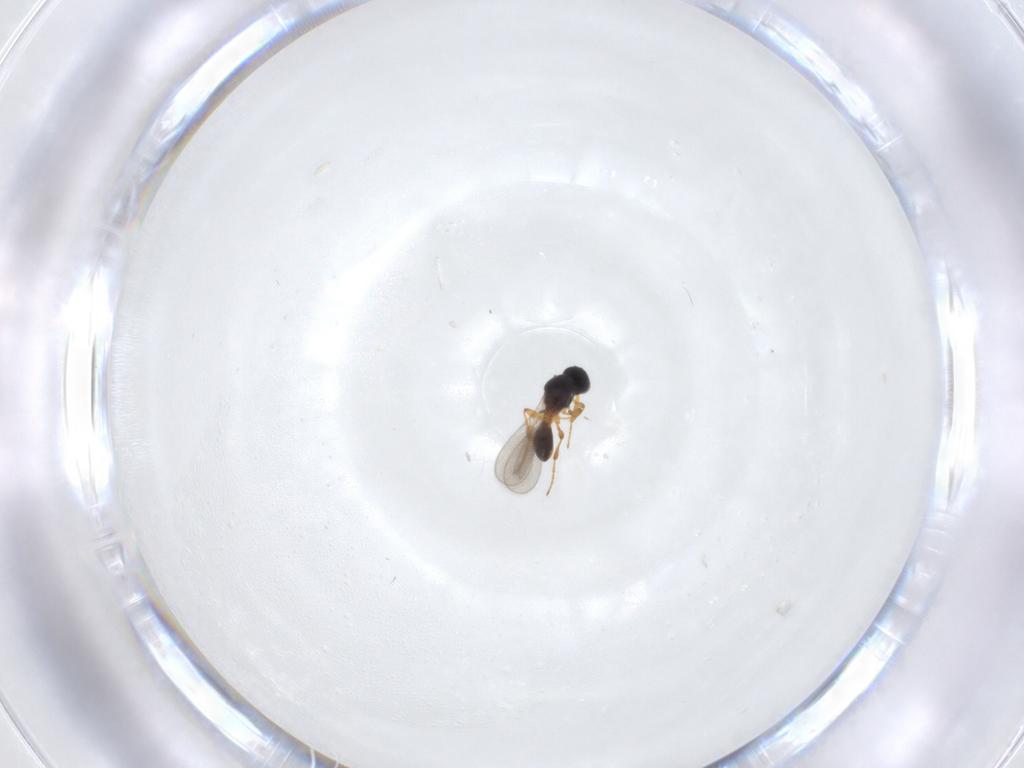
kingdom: Animalia
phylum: Arthropoda
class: Insecta
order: Hymenoptera
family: Platygastridae
